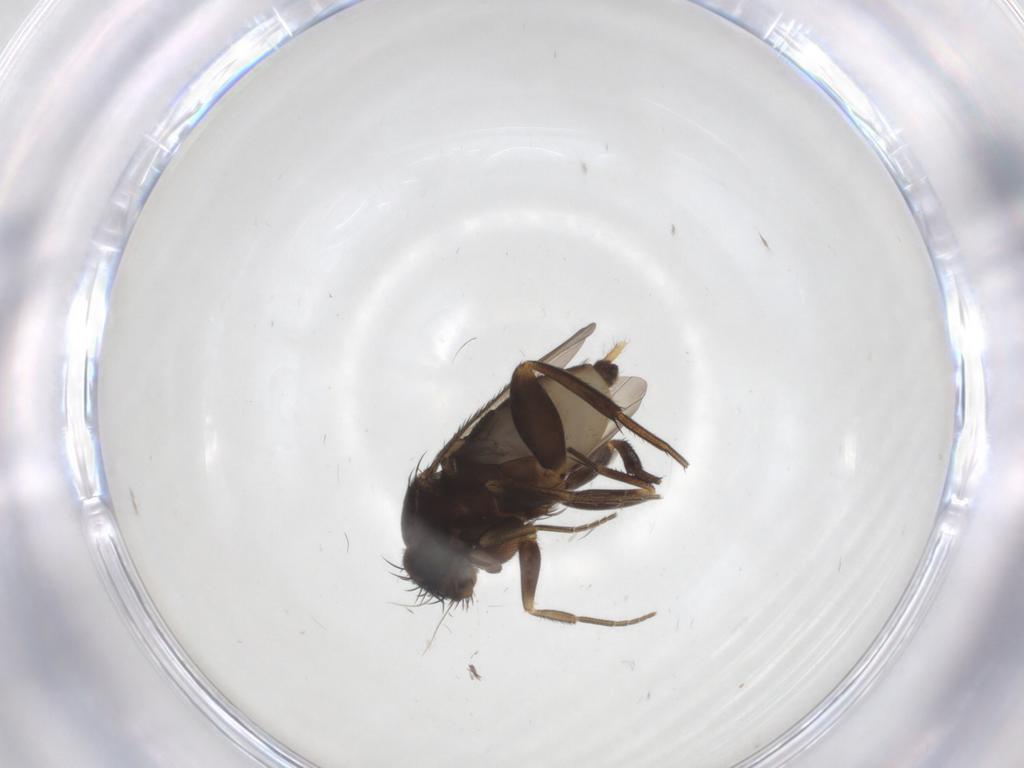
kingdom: Animalia
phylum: Arthropoda
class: Insecta
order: Diptera
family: Phoridae
